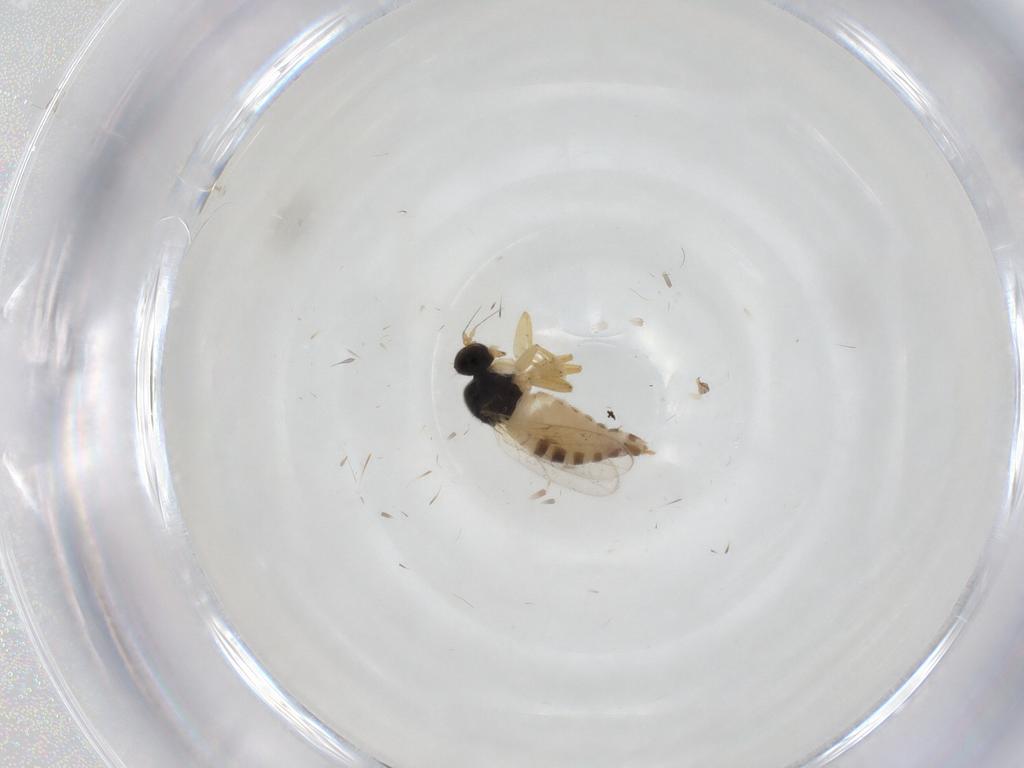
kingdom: Animalia
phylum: Arthropoda
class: Insecta
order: Diptera
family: Hybotidae
